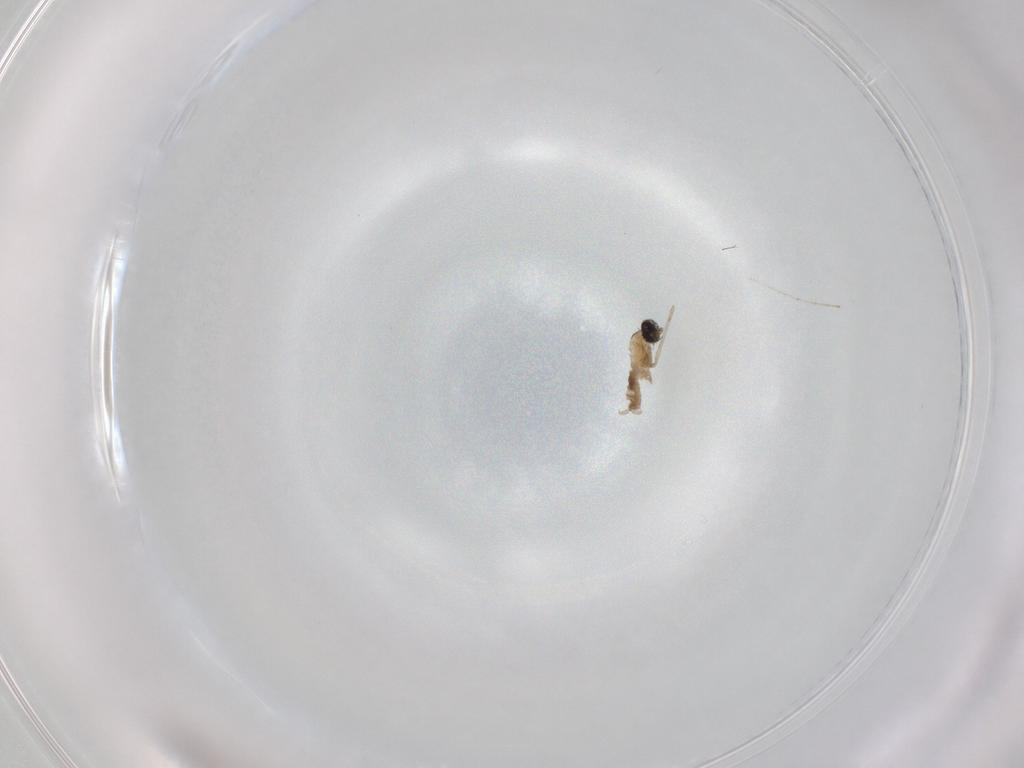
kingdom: Animalia
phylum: Arthropoda
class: Insecta
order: Diptera
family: Cecidomyiidae
